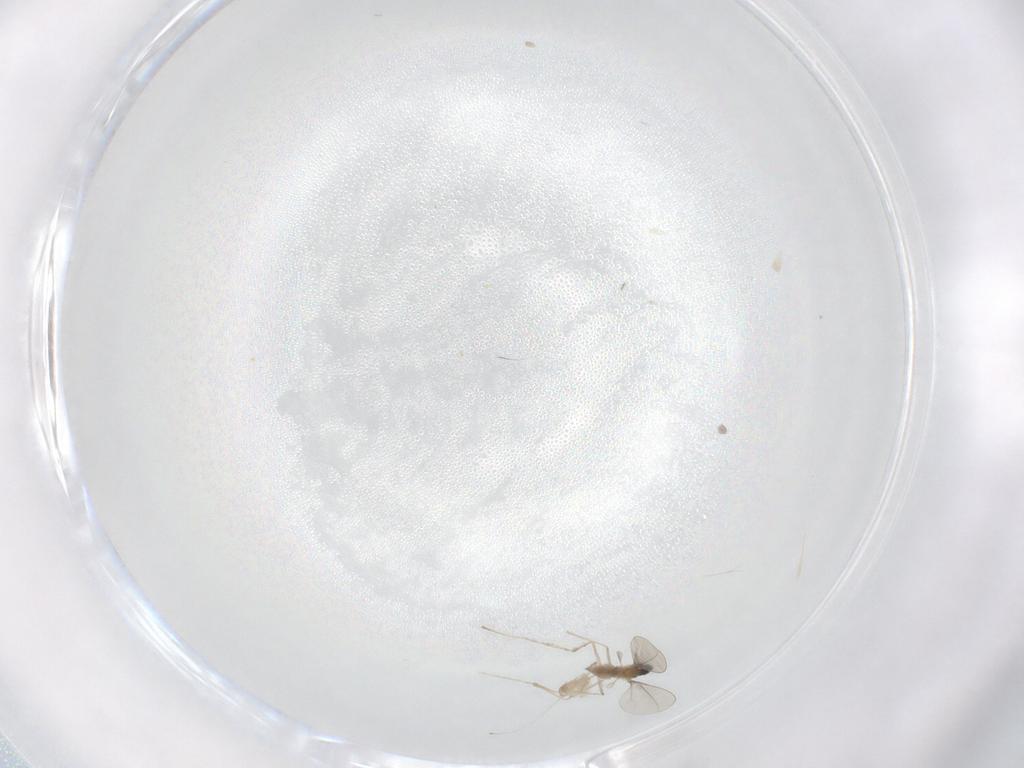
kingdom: Animalia
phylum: Arthropoda
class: Insecta
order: Diptera
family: Cecidomyiidae
